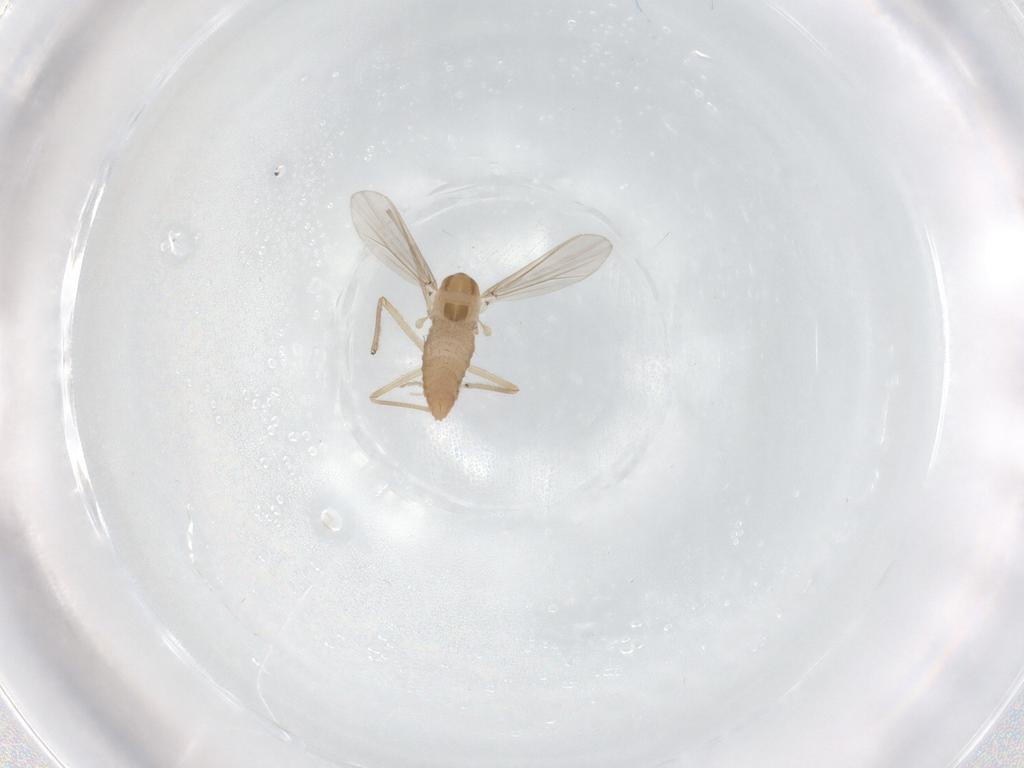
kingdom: Animalia
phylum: Arthropoda
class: Insecta
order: Diptera
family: Chironomidae
